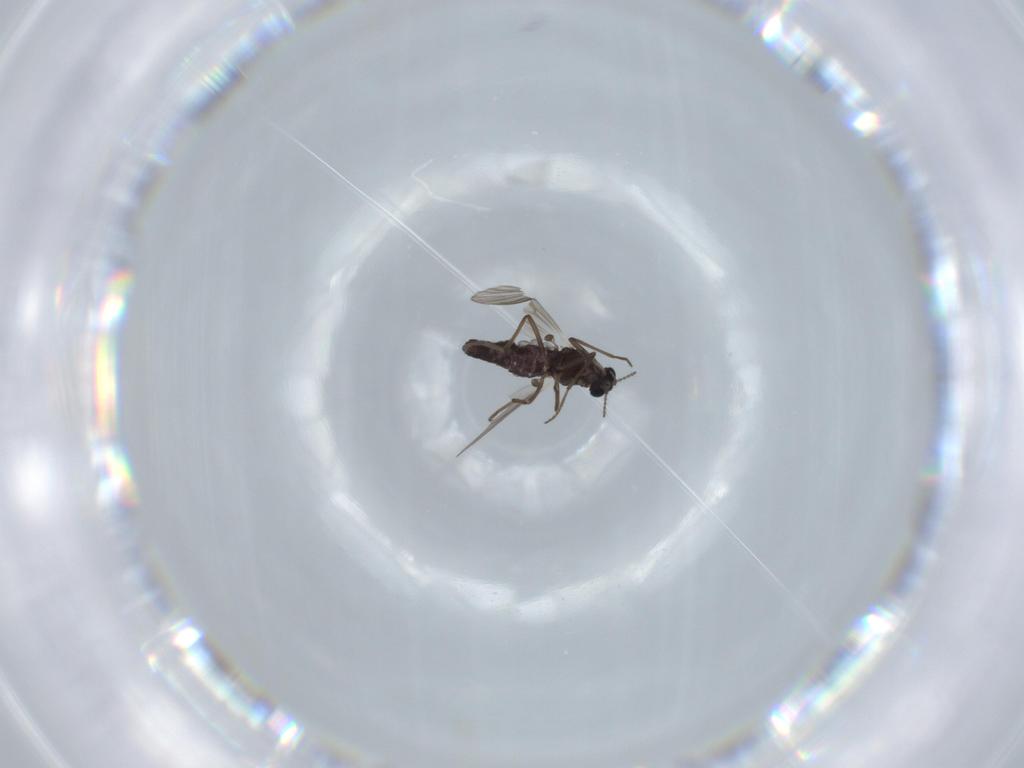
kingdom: Animalia
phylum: Arthropoda
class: Insecta
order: Diptera
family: Chironomidae
